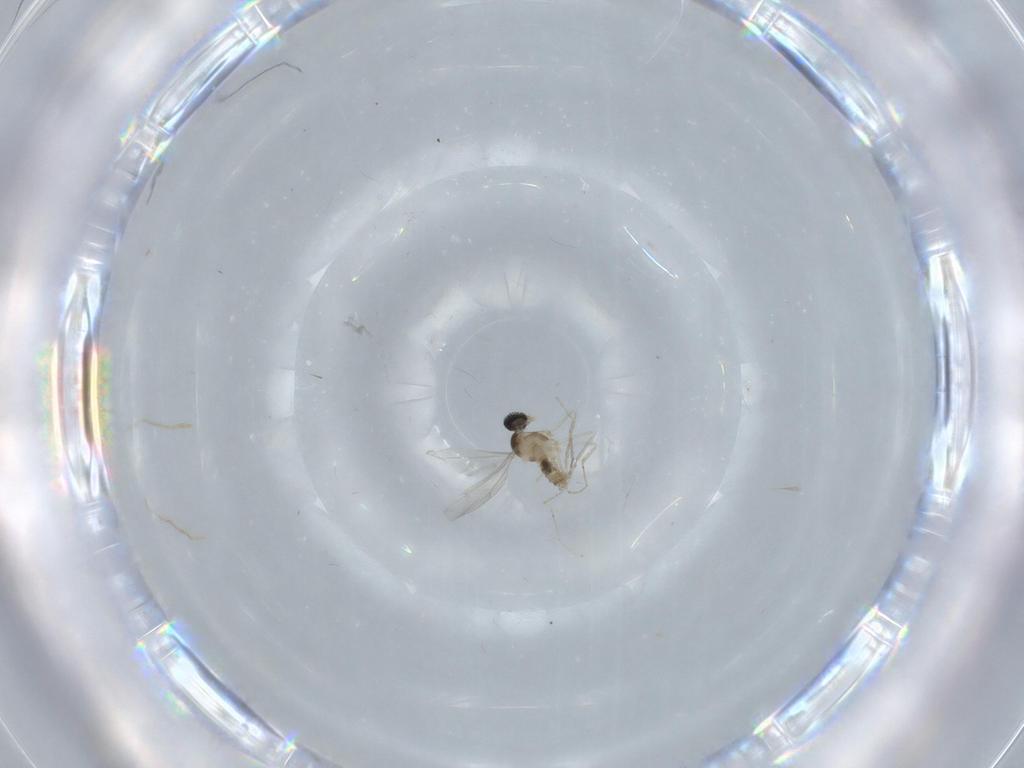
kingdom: Animalia
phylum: Arthropoda
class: Insecta
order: Diptera
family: Cecidomyiidae
